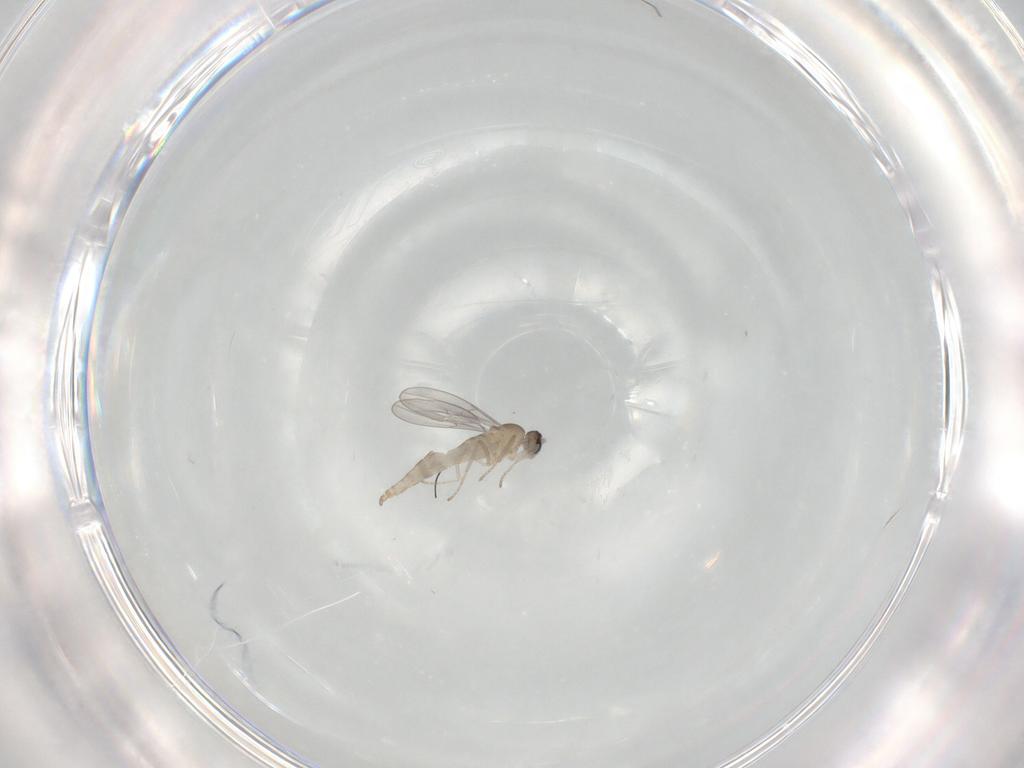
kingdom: Animalia
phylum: Arthropoda
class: Insecta
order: Diptera
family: Cecidomyiidae
